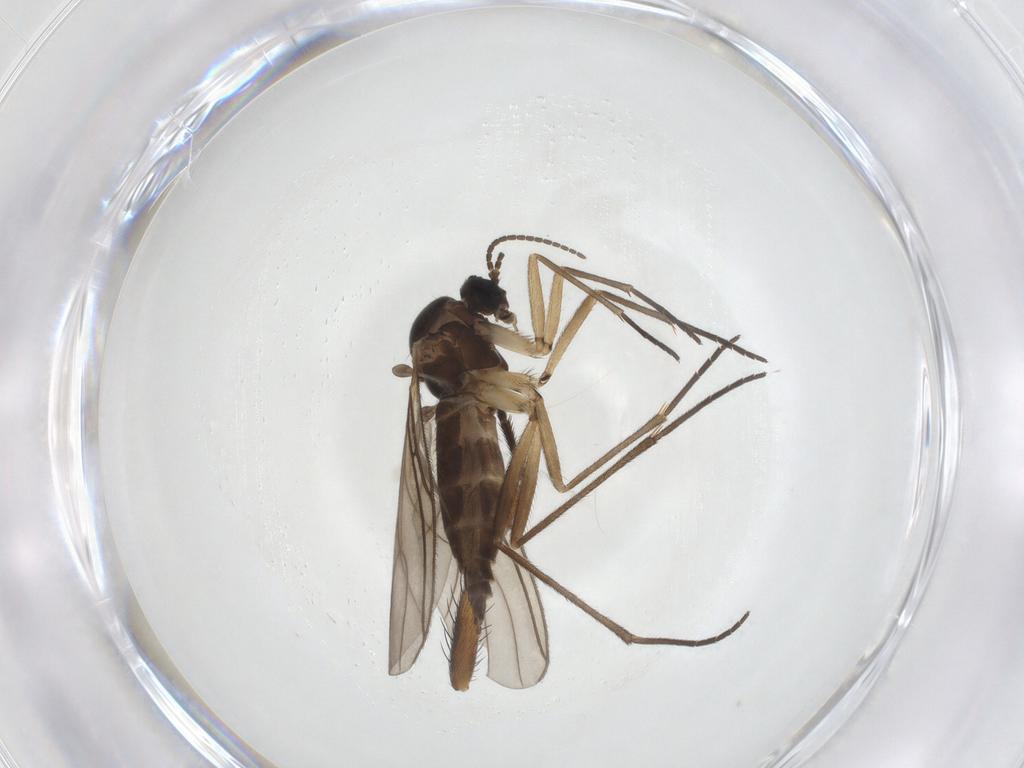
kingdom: Animalia
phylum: Arthropoda
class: Insecta
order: Diptera
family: Sciaridae
